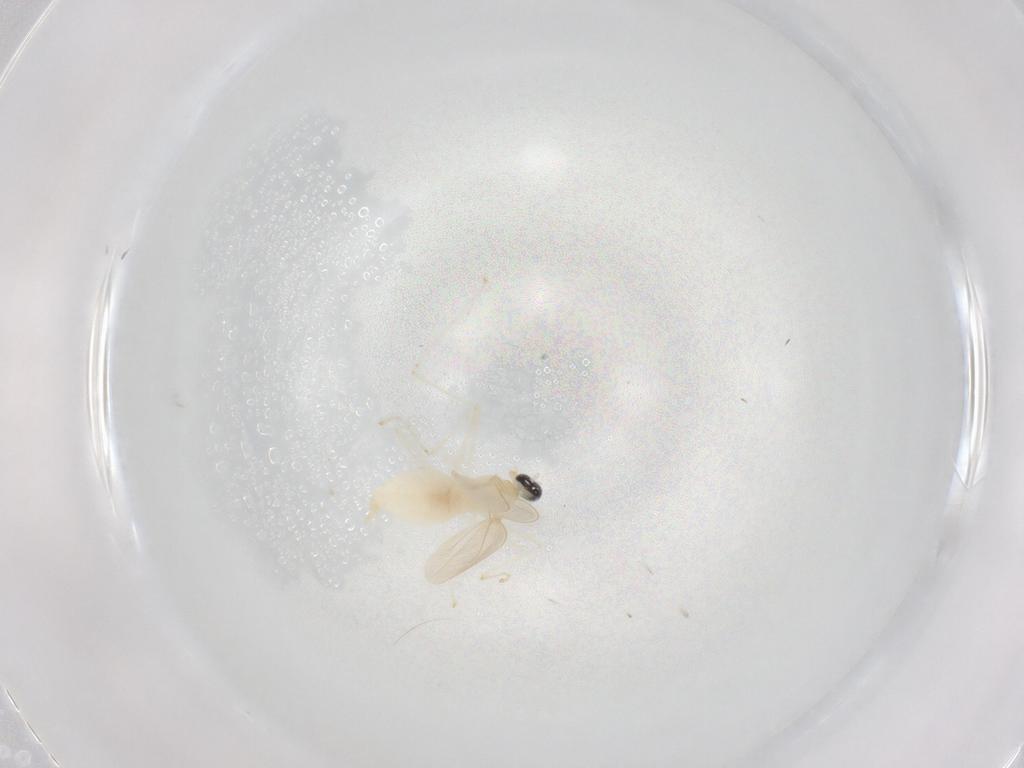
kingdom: Animalia
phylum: Arthropoda
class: Insecta
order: Diptera
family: Cecidomyiidae
